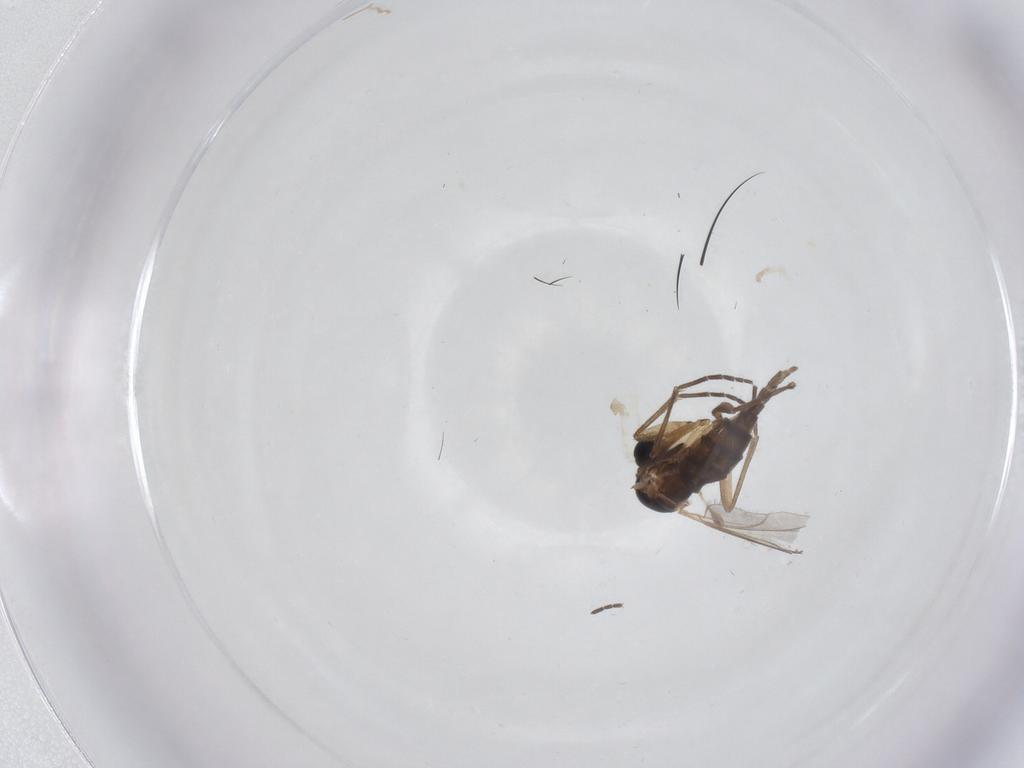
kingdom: Animalia
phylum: Arthropoda
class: Insecta
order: Diptera
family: Sciaridae
